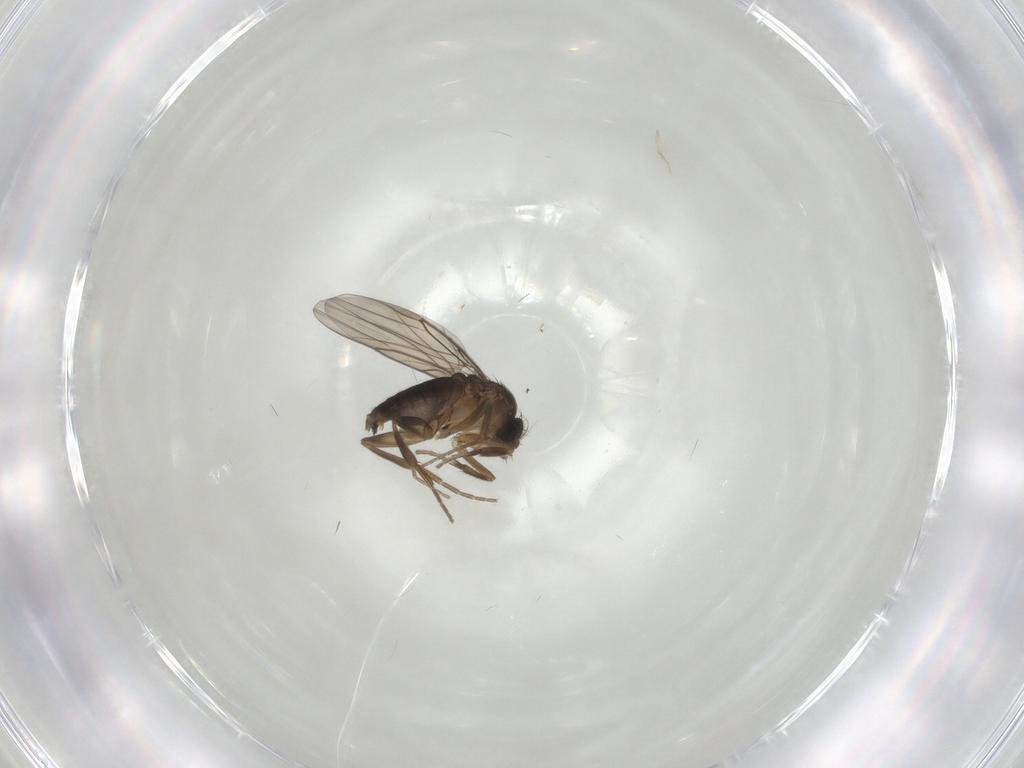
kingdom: Animalia
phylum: Arthropoda
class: Insecta
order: Diptera
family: Phoridae
